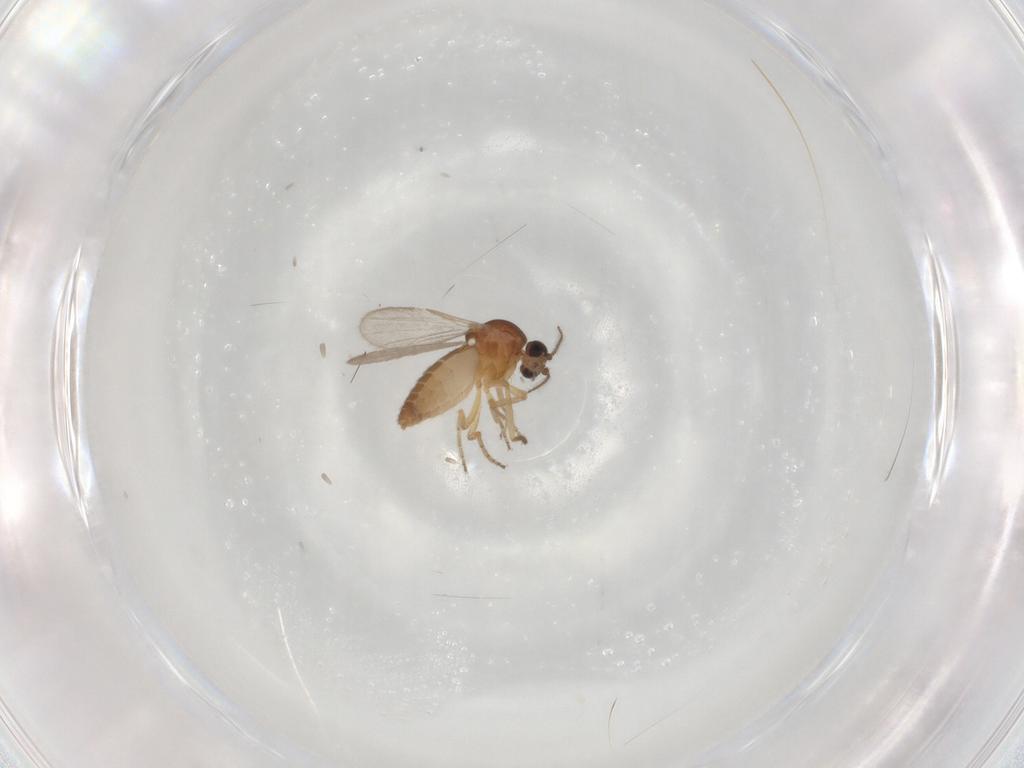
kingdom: Animalia
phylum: Arthropoda
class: Insecta
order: Diptera
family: Ceratopogonidae
